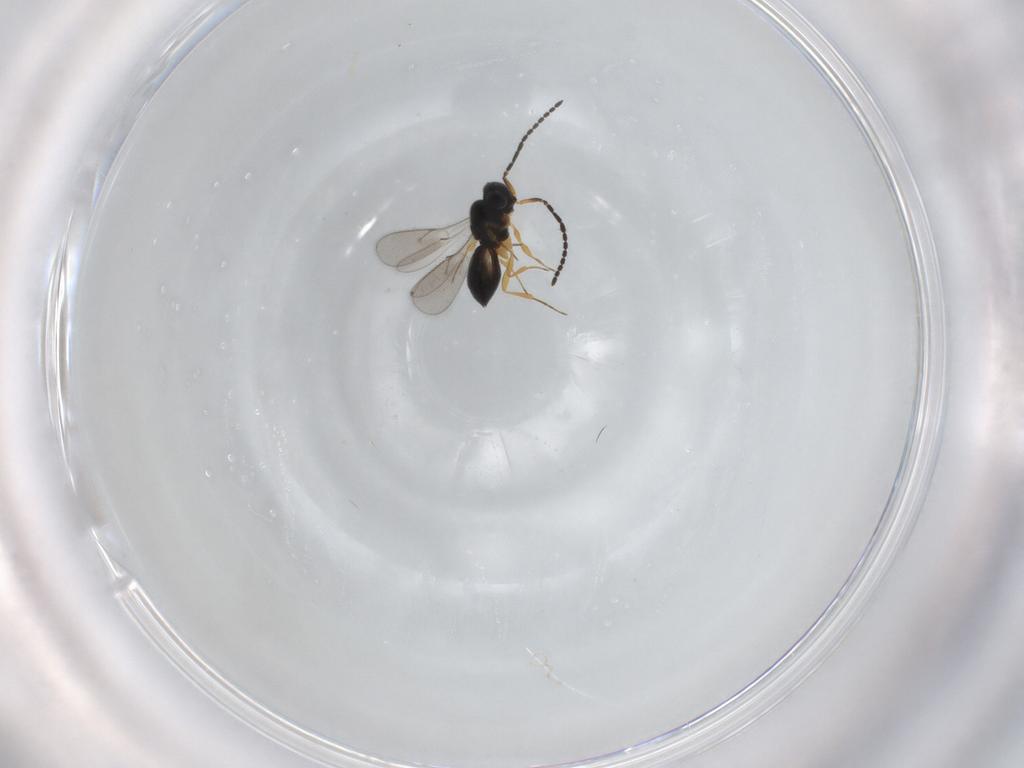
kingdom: Animalia
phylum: Arthropoda
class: Insecta
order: Hymenoptera
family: Scelionidae
